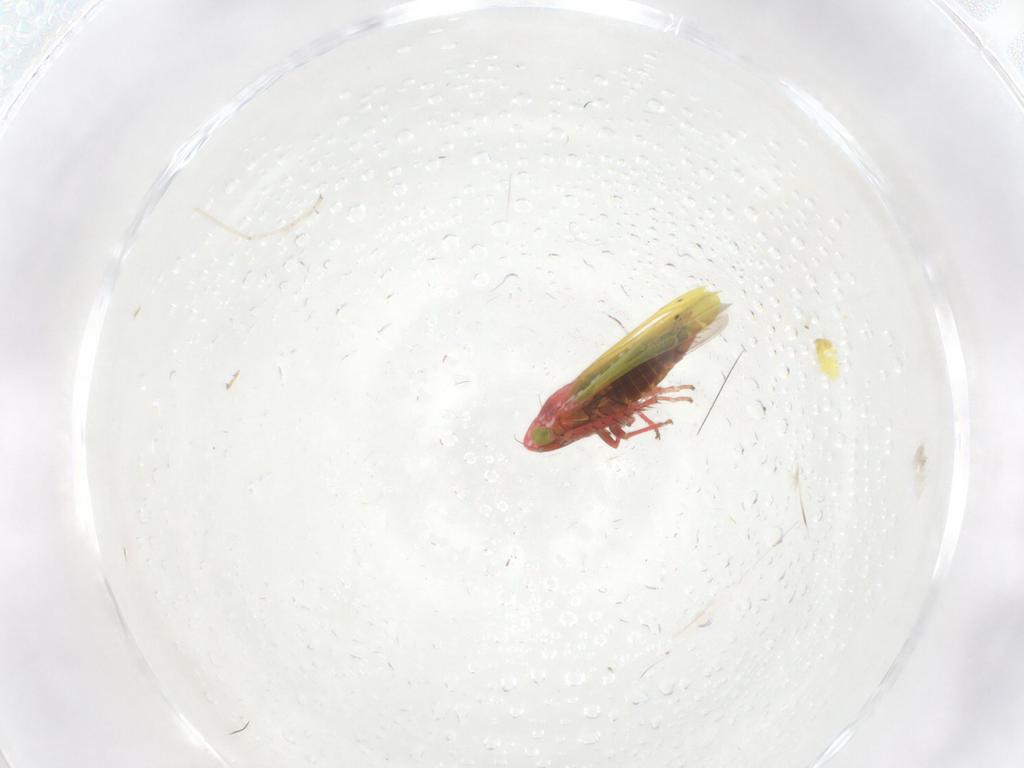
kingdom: Animalia
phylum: Arthropoda
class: Insecta
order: Hemiptera
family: Cicadellidae
